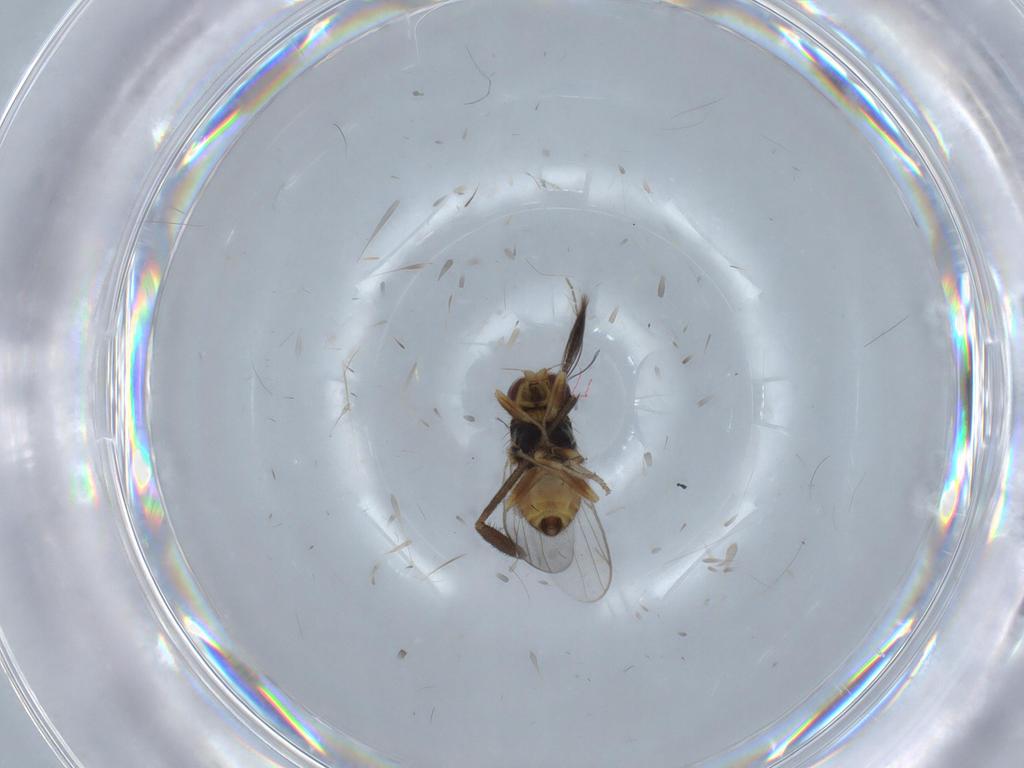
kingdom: Animalia
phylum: Arthropoda
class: Insecta
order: Diptera
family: Chloropidae
